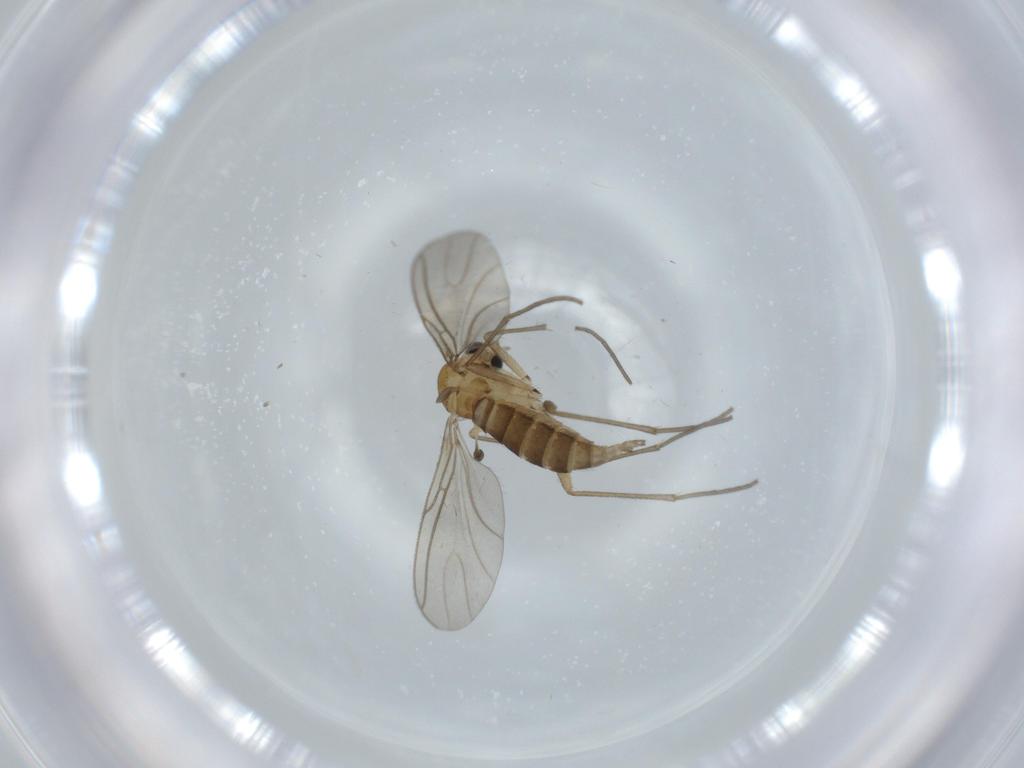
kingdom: Animalia
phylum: Arthropoda
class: Insecta
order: Diptera
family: Sciaridae
